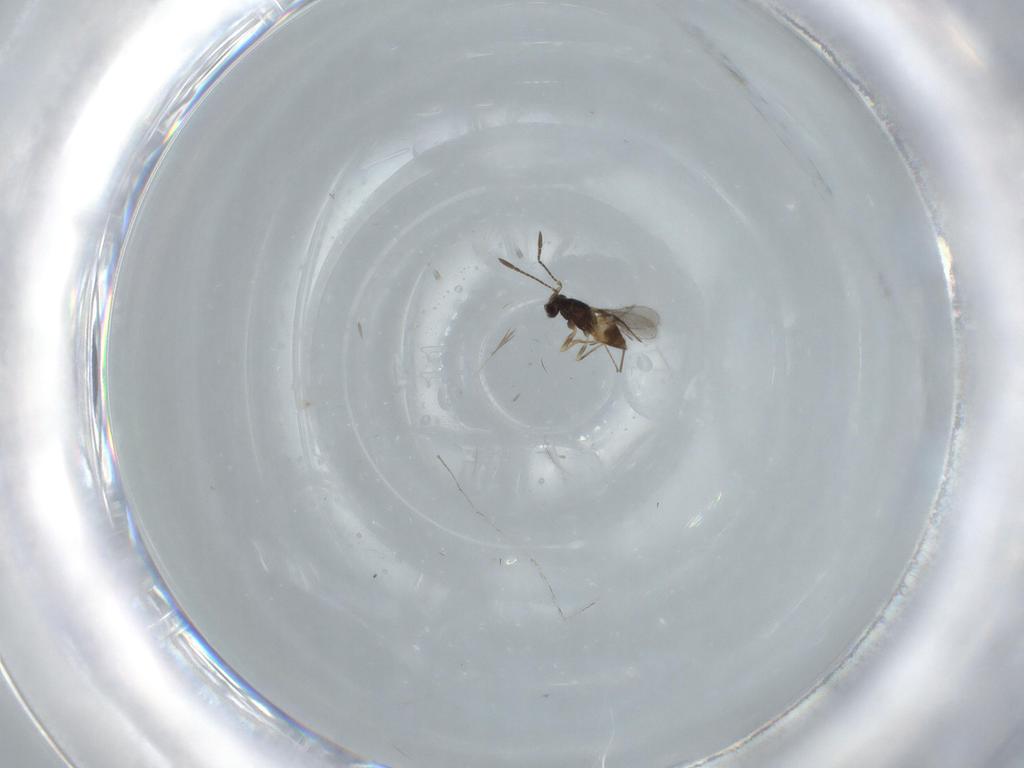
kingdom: Animalia
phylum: Arthropoda
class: Insecta
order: Hymenoptera
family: Mymaridae
